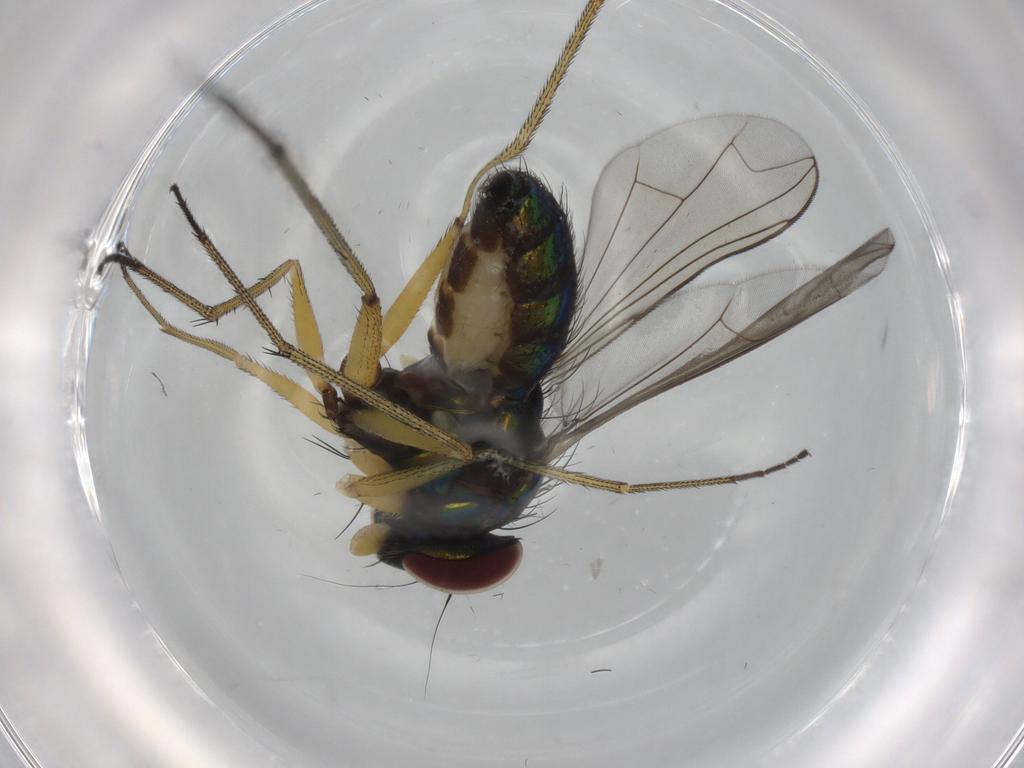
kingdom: Animalia
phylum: Arthropoda
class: Insecta
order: Diptera
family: Dolichopodidae
